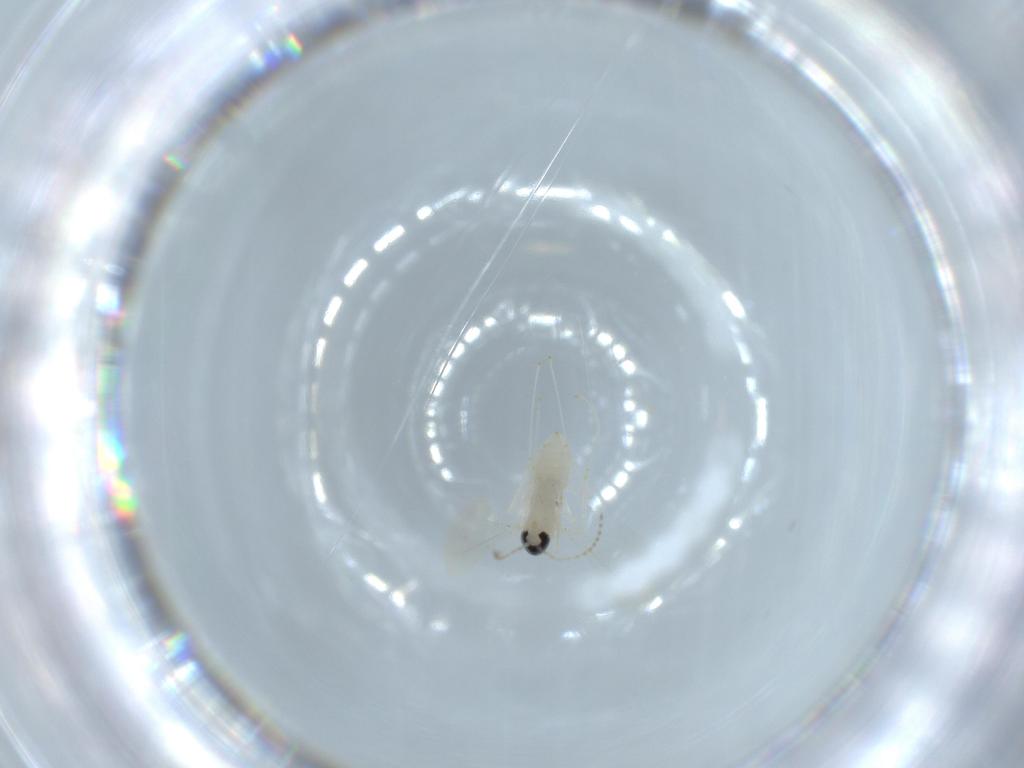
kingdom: Animalia
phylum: Arthropoda
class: Insecta
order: Diptera
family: Cecidomyiidae
